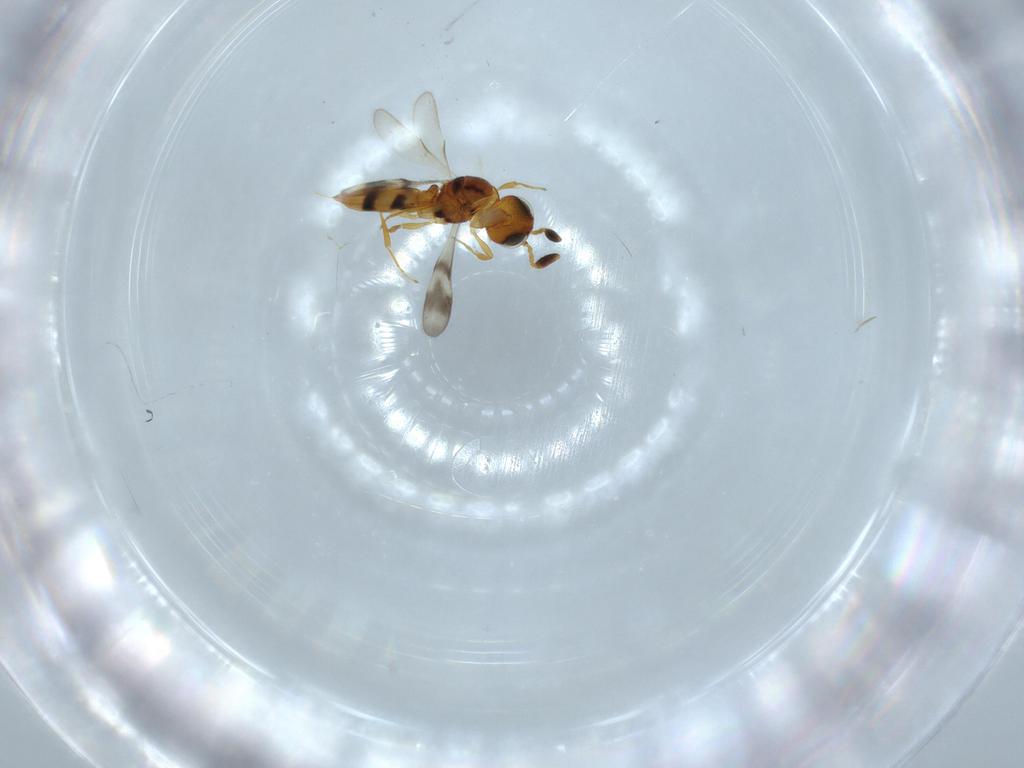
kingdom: Animalia
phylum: Arthropoda
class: Insecta
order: Hymenoptera
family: Scelionidae
